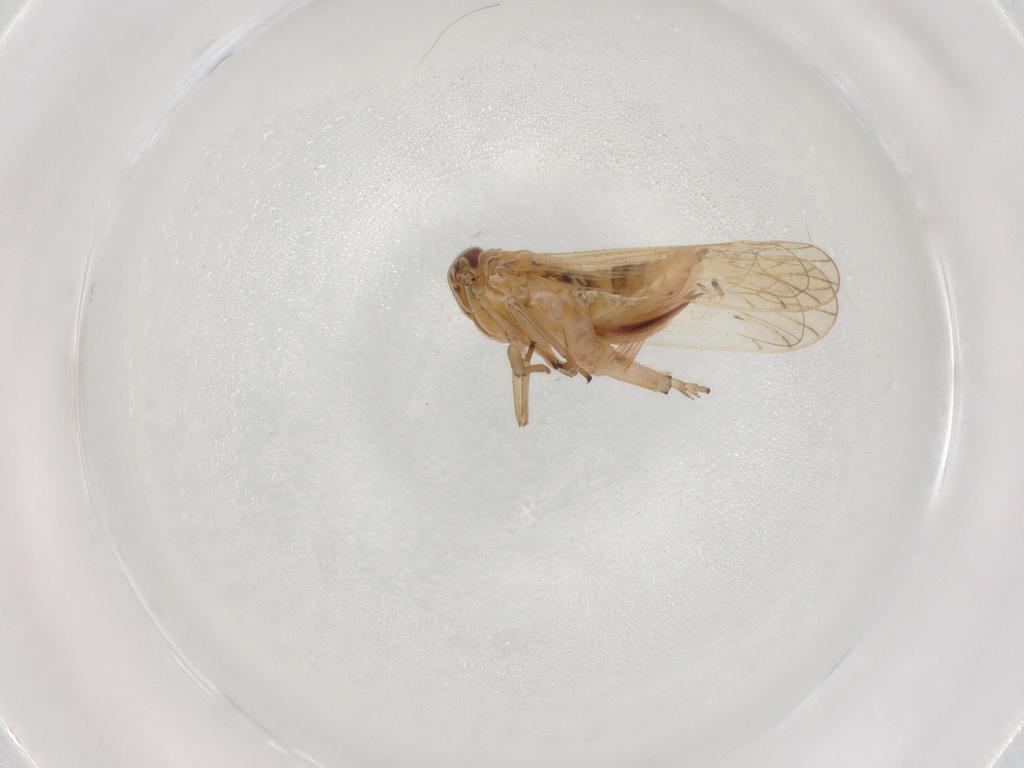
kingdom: Animalia
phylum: Arthropoda
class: Insecta
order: Hemiptera
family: Delphacidae
